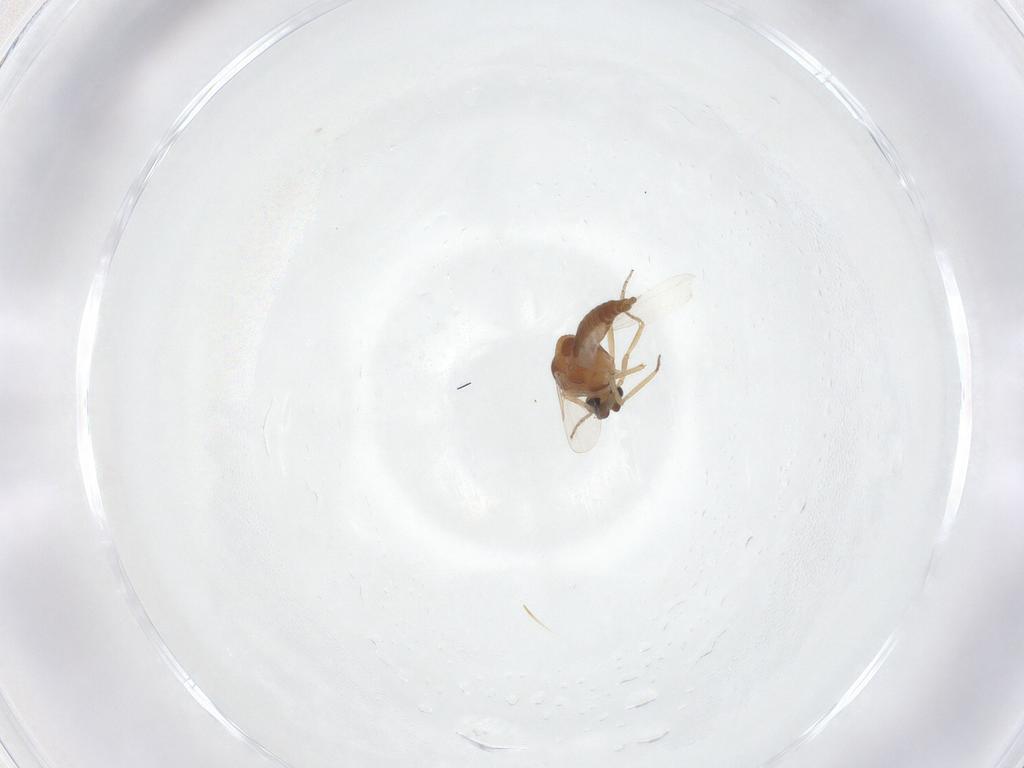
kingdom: Animalia
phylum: Arthropoda
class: Insecta
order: Diptera
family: Ceratopogonidae
